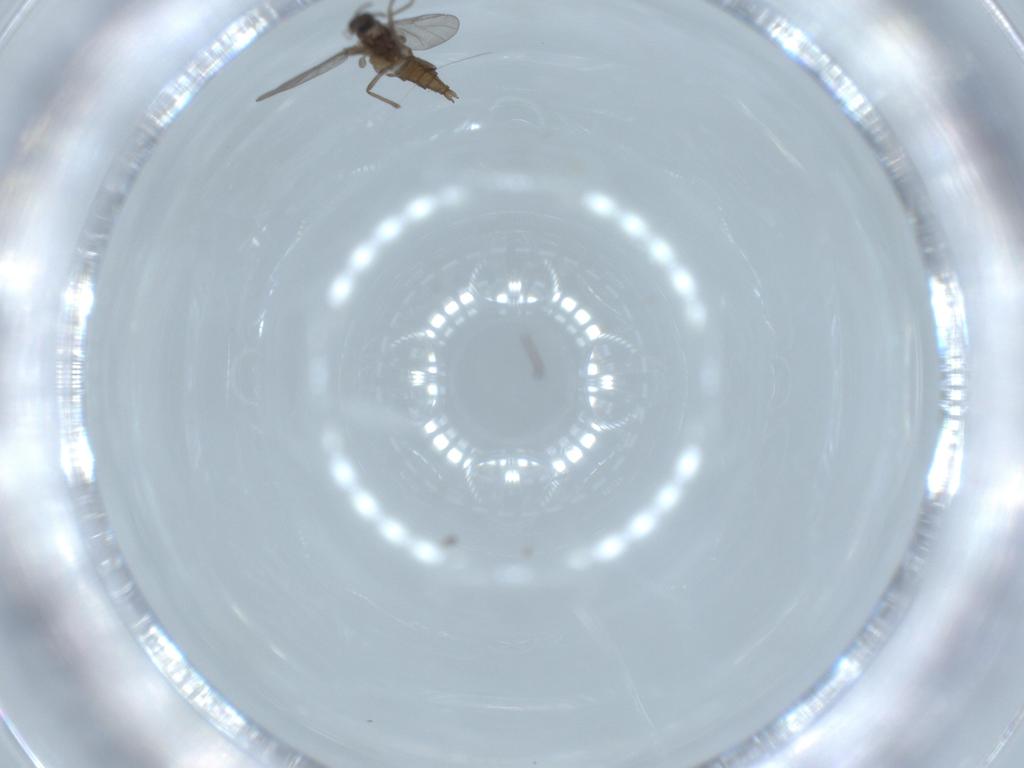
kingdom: Animalia
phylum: Arthropoda
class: Insecta
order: Diptera
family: Cecidomyiidae
